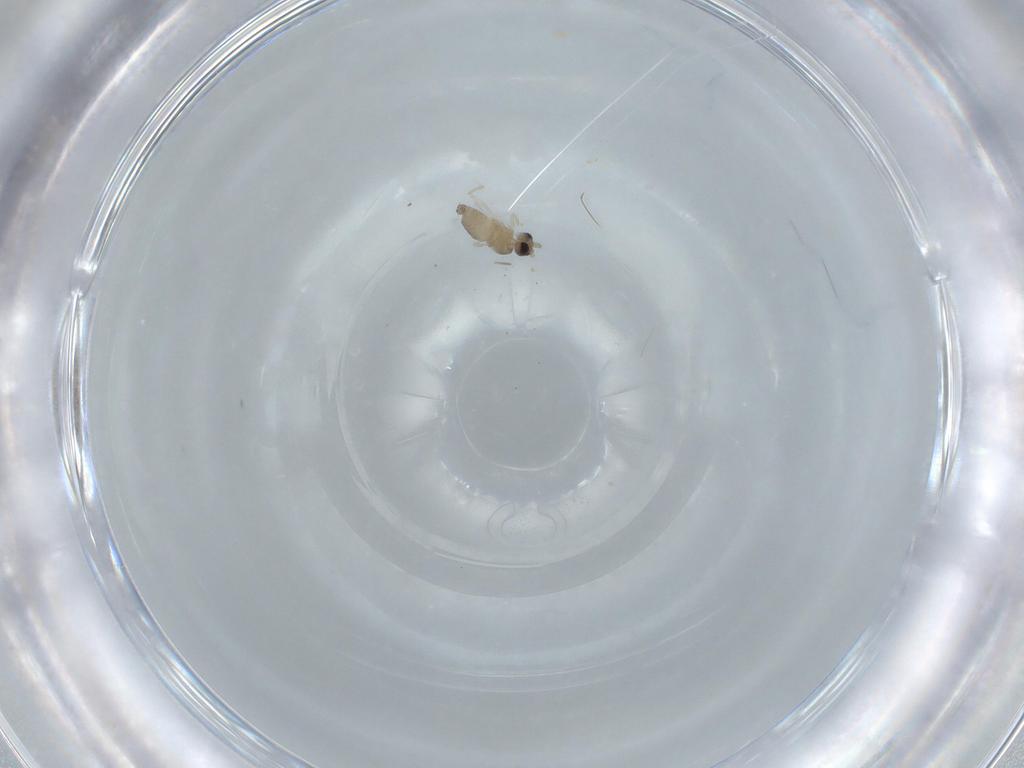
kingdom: Animalia
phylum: Arthropoda
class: Insecta
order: Diptera
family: Cecidomyiidae
